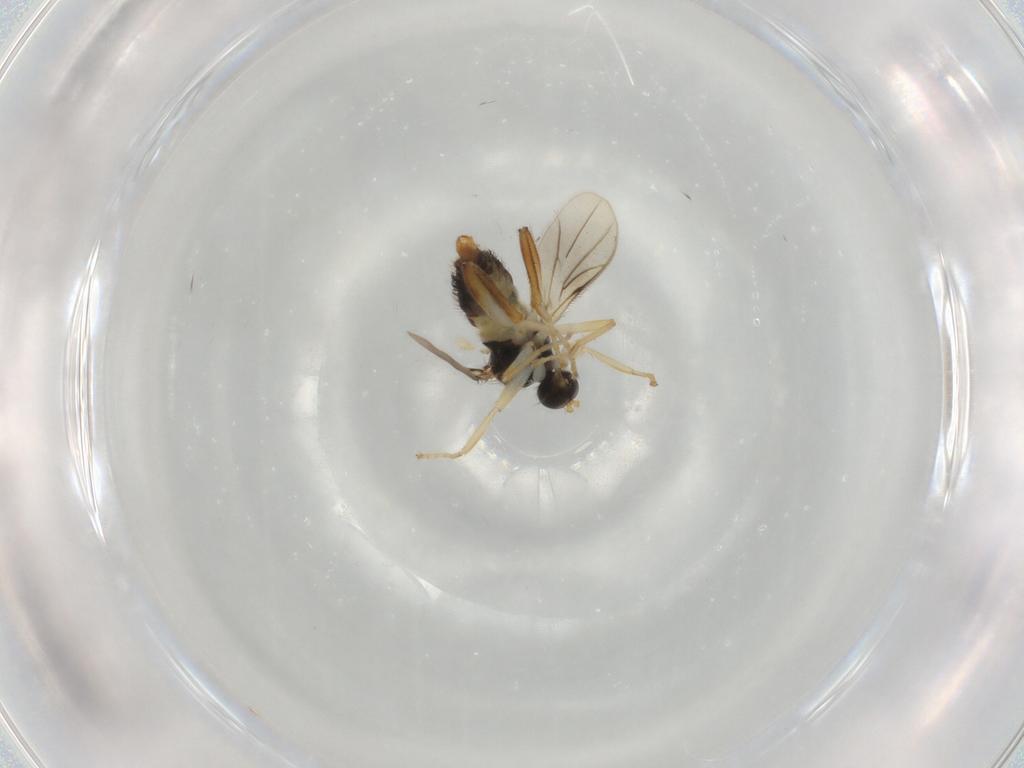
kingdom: Animalia
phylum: Arthropoda
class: Insecta
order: Diptera
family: Hybotidae
